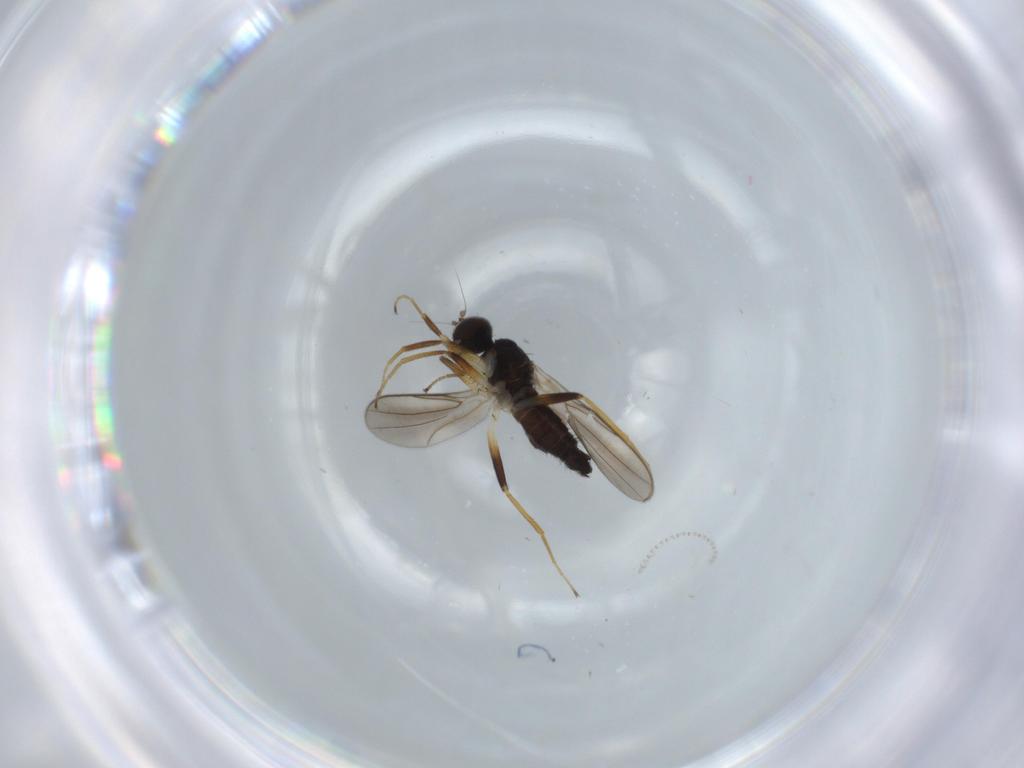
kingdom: Animalia
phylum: Arthropoda
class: Insecta
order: Diptera
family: Hybotidae
